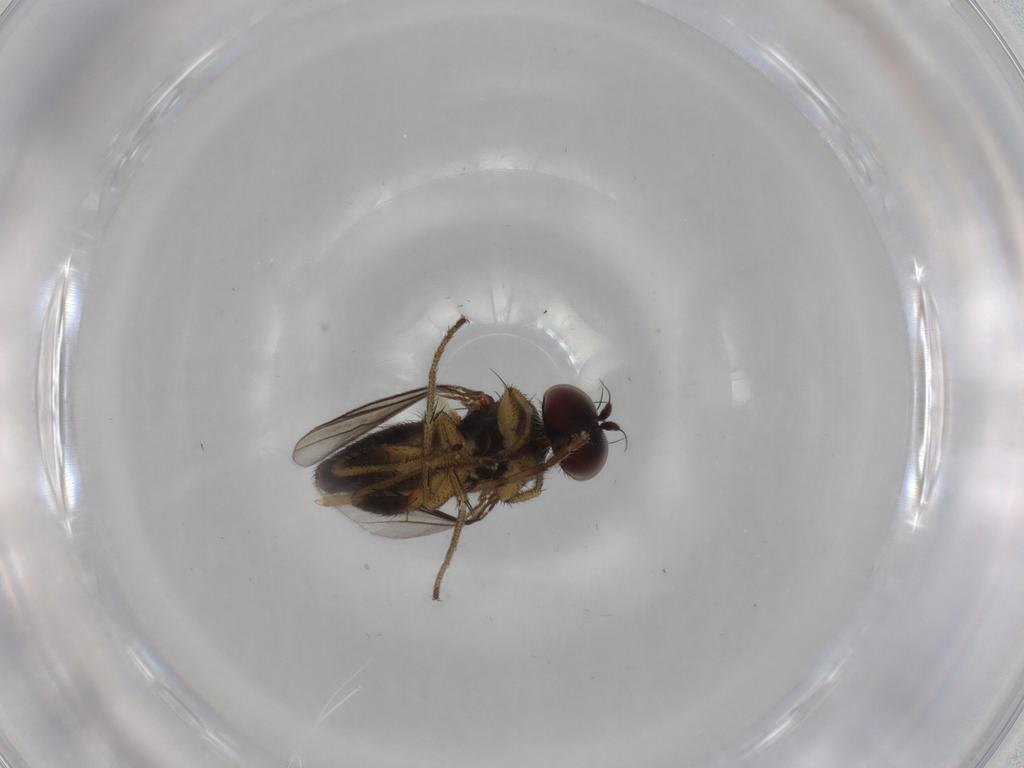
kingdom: Animalia
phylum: Arthropoda
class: Insecta
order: Diptera
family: Dolichopodidae
